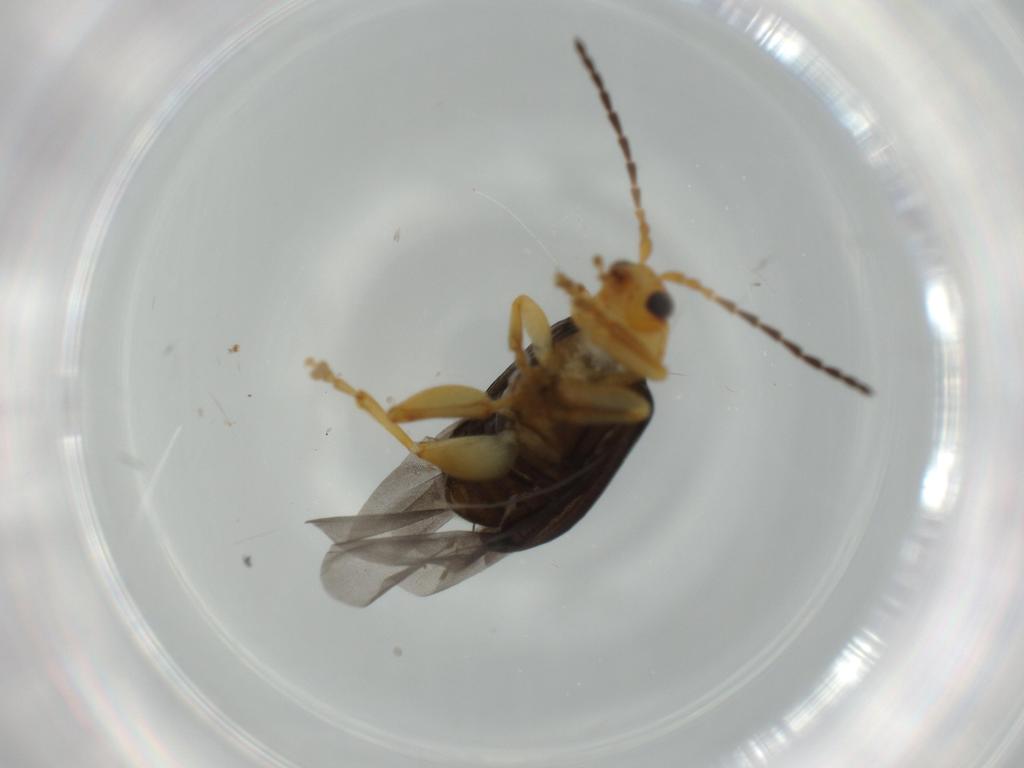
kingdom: Animalia
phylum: Arthropoda
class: Insecta
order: Coleoptera
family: Chrysomelidae
